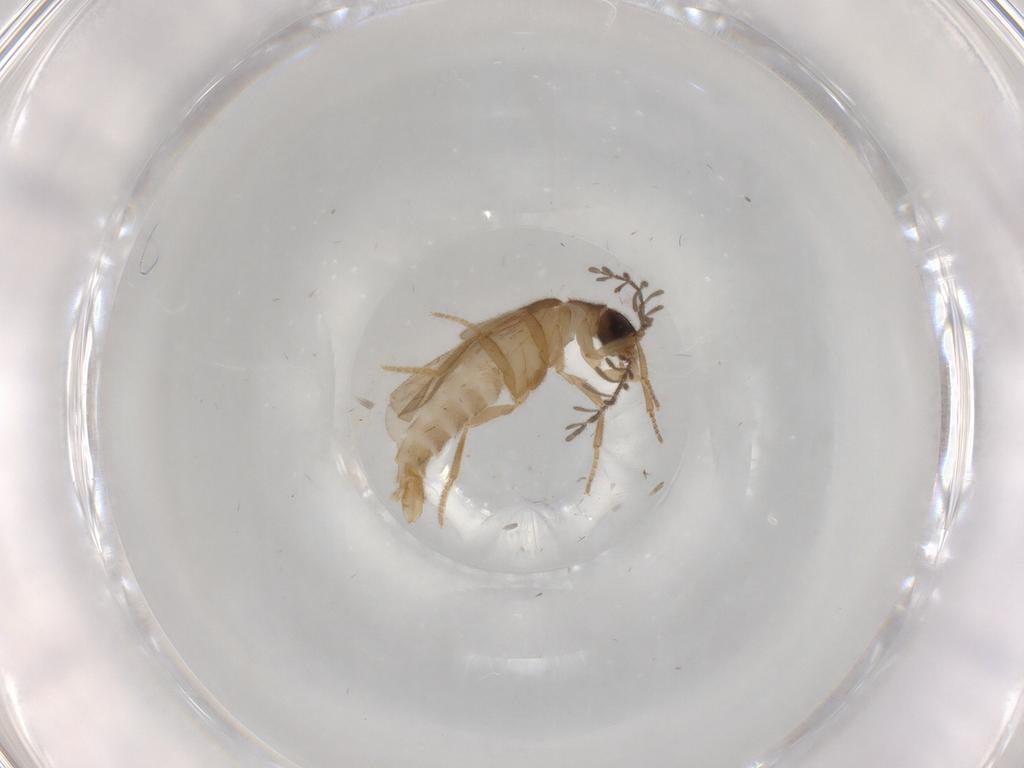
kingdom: Animalia
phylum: Arthropoda
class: Insecta
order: Coleoptera
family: Phengodidae
